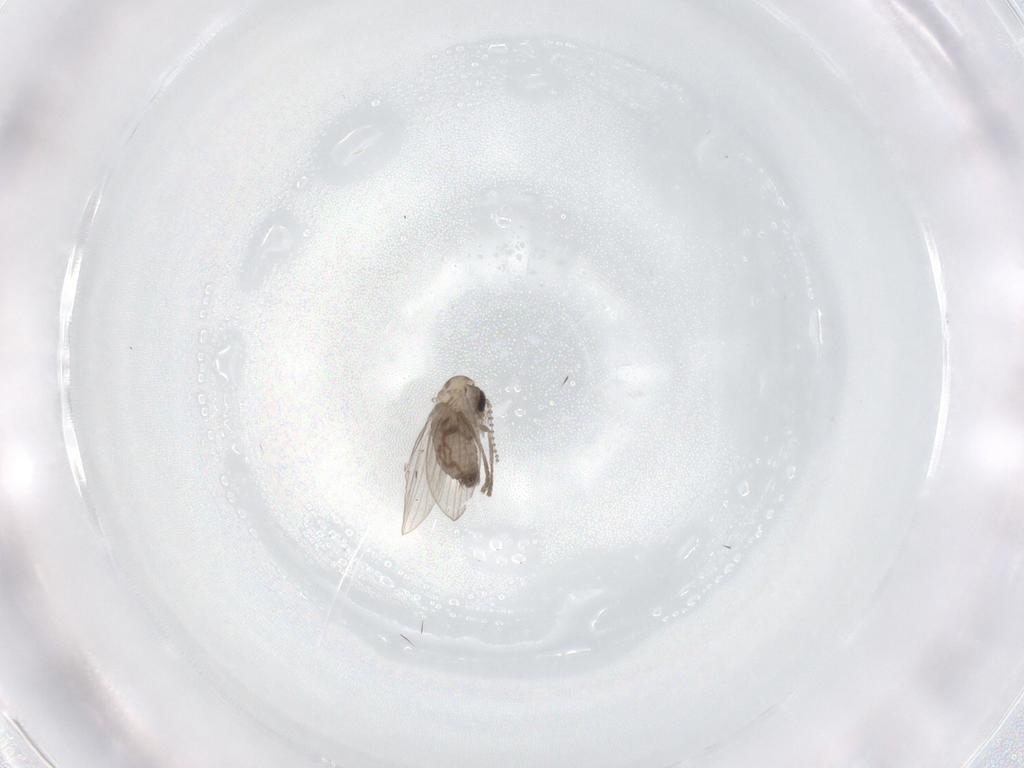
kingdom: Animalia
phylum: Arthropoda
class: Insecta
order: Diptera
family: Psychodidae
